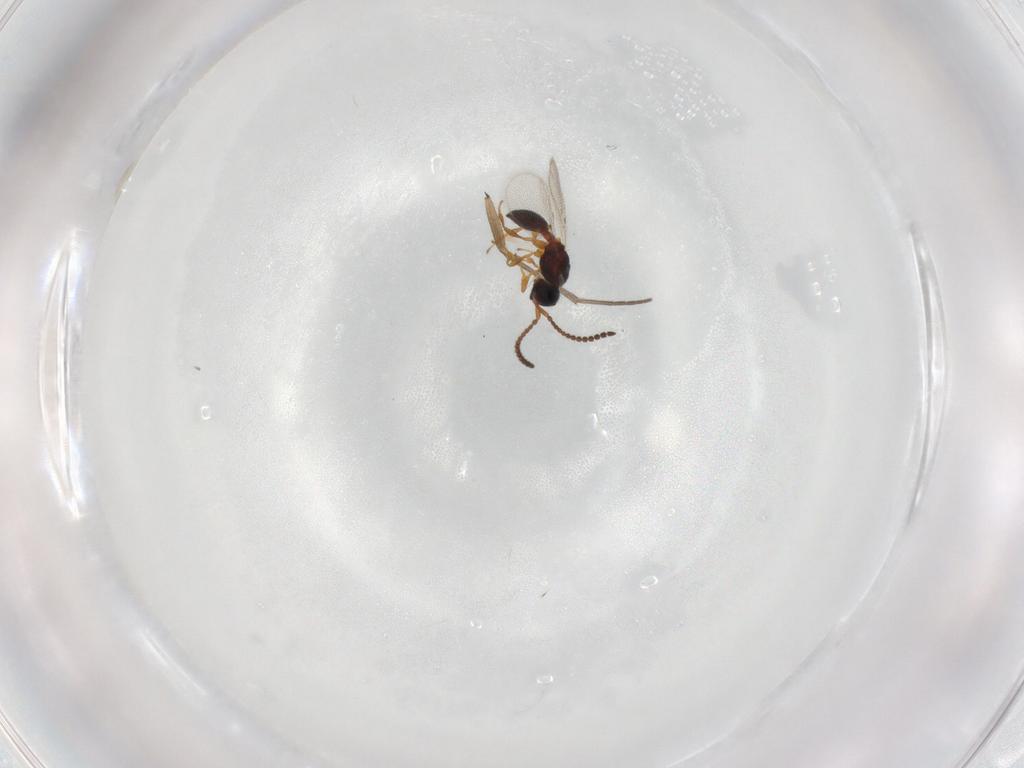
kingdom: Animalia
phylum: Arthropoda
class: Insecta
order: Hymenoptera
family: Diapriidae
